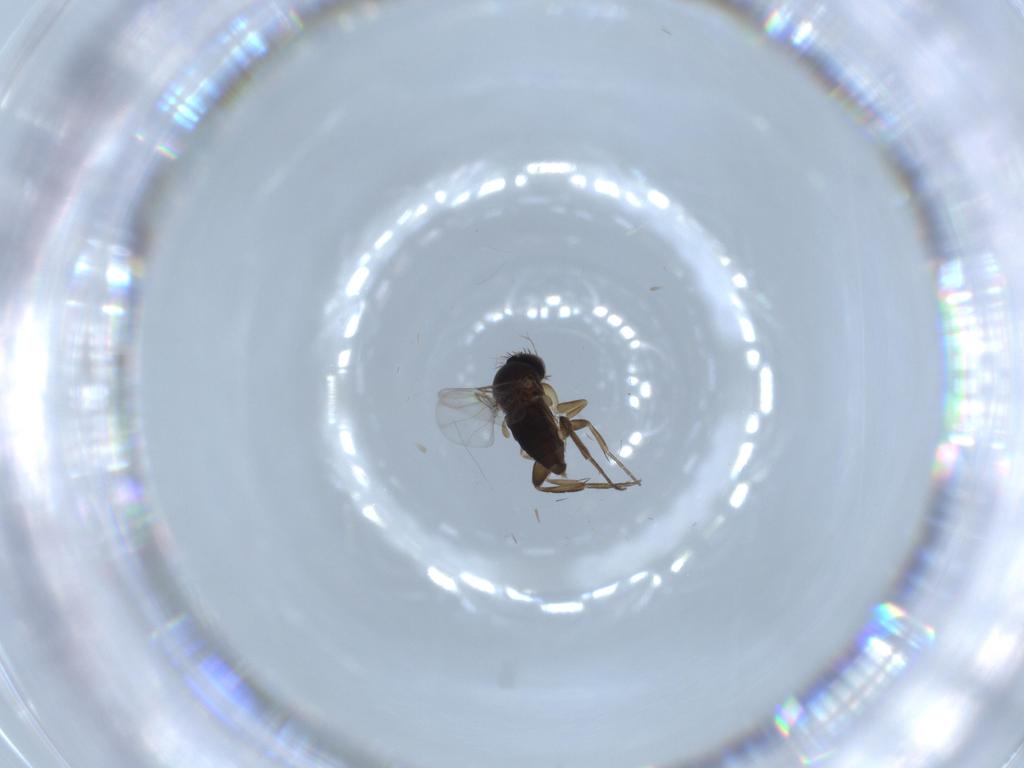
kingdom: Animalia
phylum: Arthropoda
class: Insecta
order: Diptera
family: Phoridae
